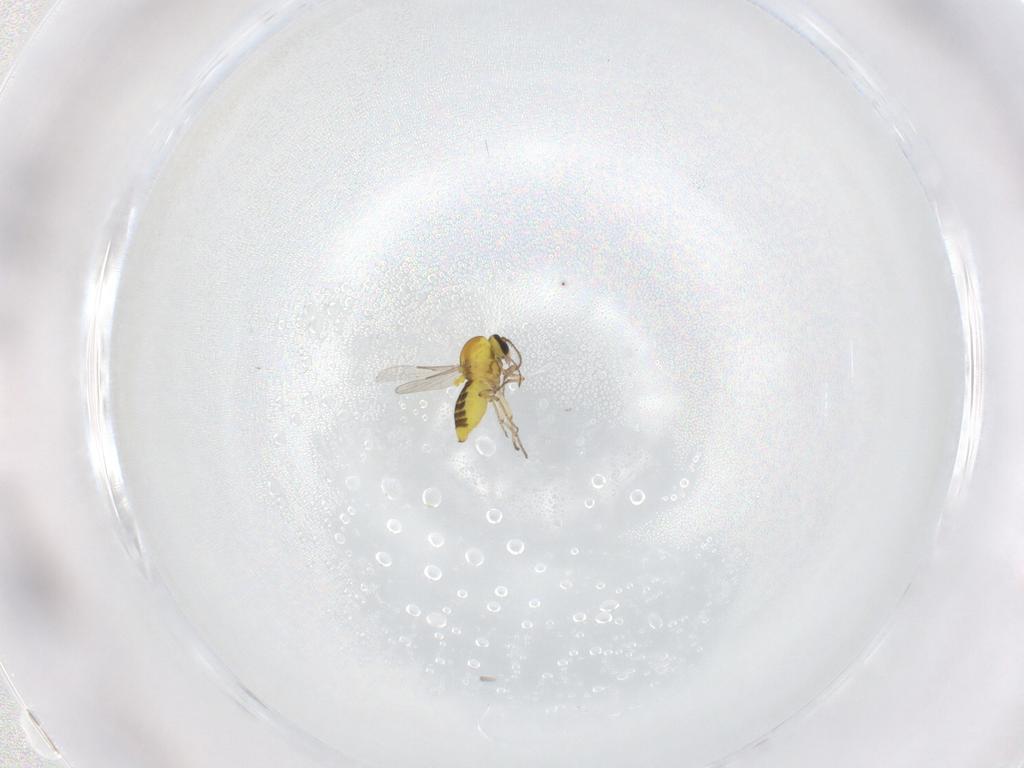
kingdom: Animalia
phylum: Arthropoda
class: Insecta
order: Diptera
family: Ceratopogonidae
